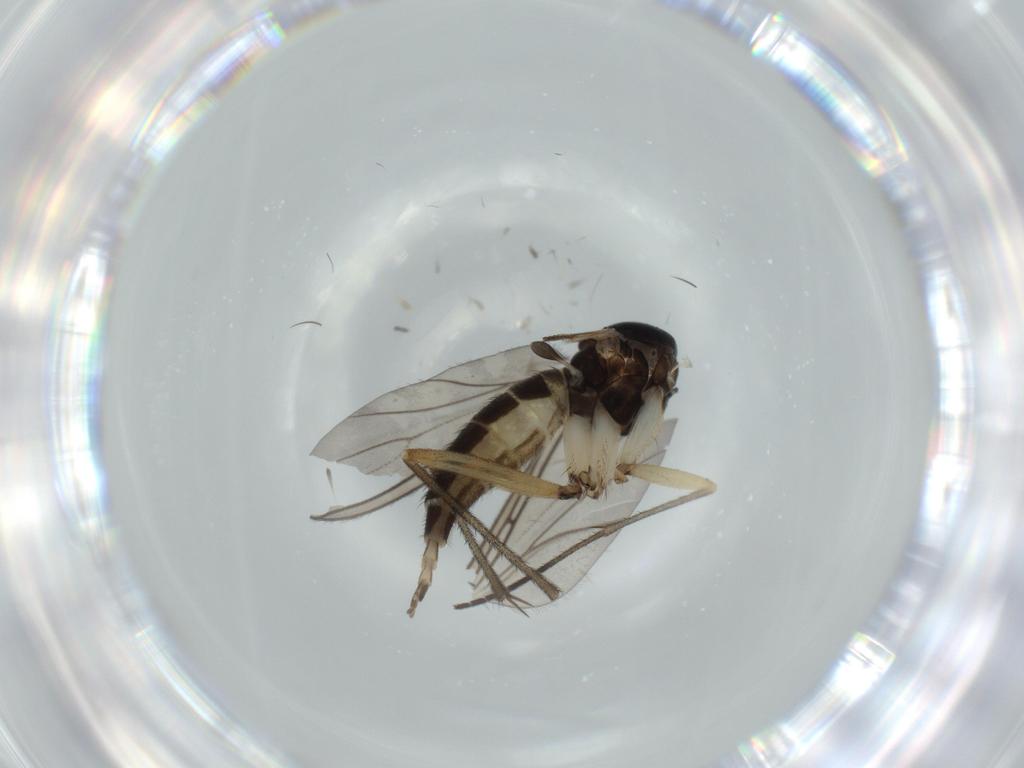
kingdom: Animalia
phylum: Arthropoda
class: Insecta
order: Diptera
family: Sciaridae
